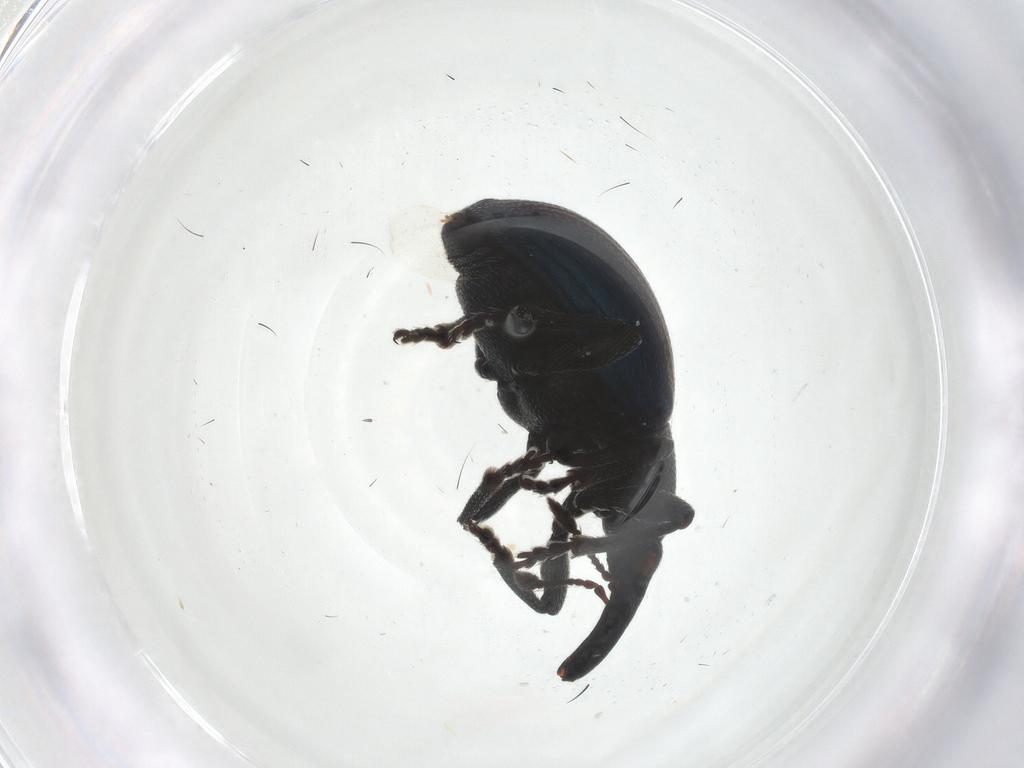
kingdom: Animalia
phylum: Arthropoda
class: Insecta
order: Coleoptera
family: Brentidae
